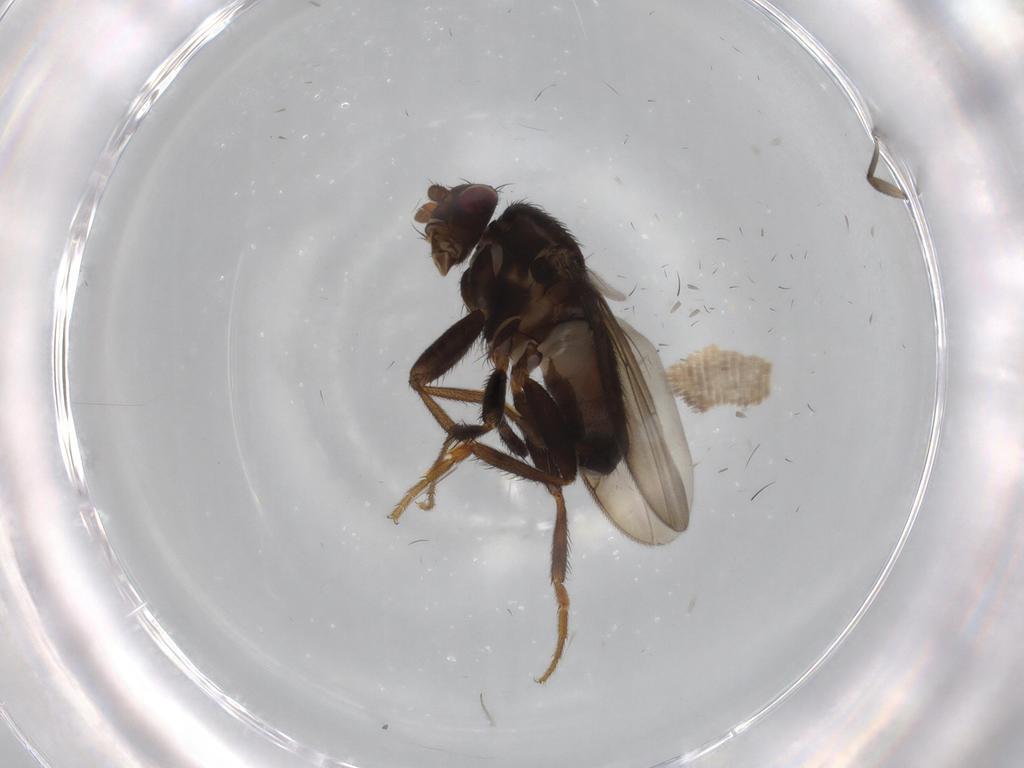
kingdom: Animalia
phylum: Arthropoda
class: Insecta
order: Diptera
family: Sphaeroceridae
